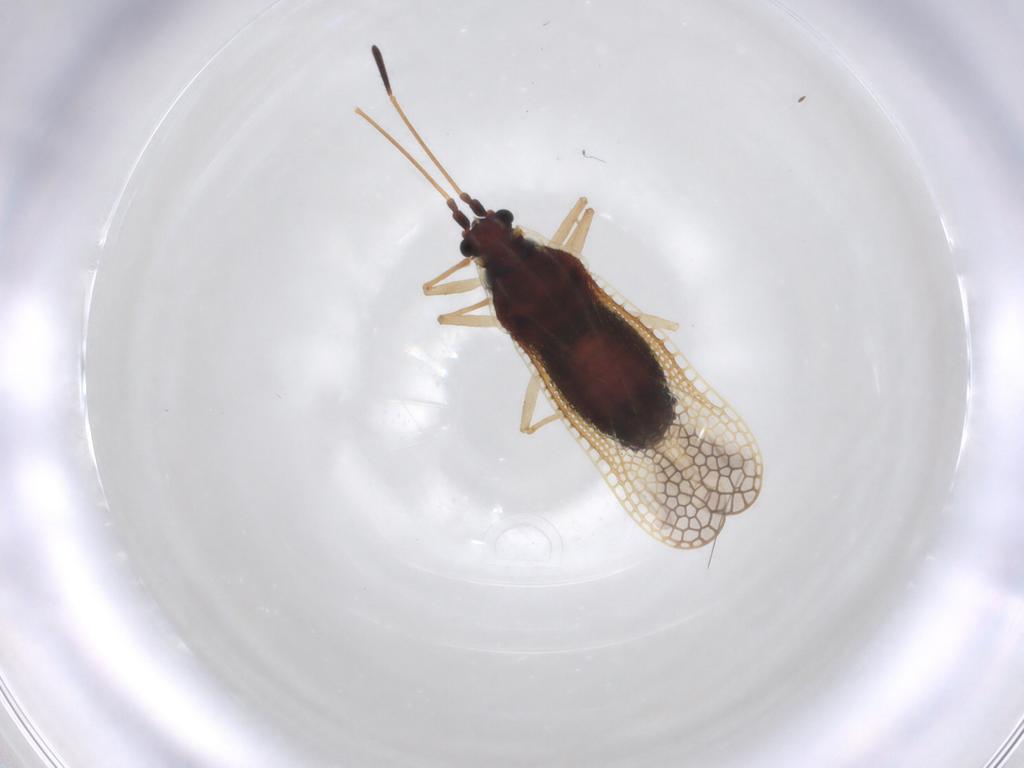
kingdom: Animalia
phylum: Arthropoda
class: Insecta
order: Hemiptera
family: Tingidae
